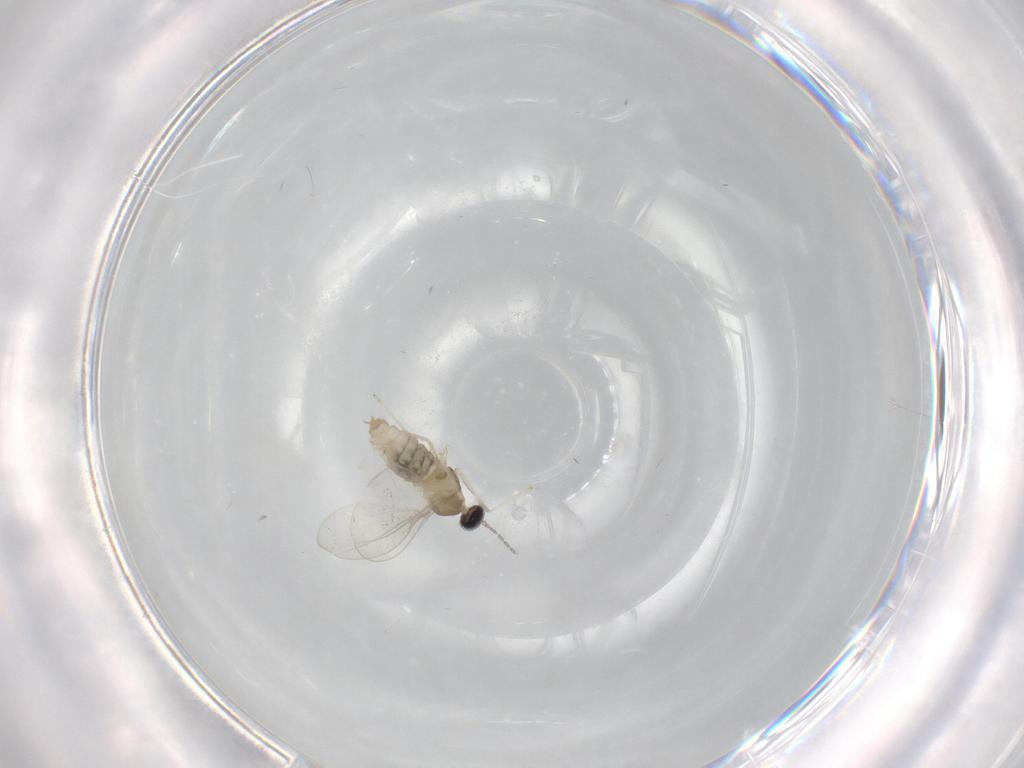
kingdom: Animalia
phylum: Arthropoda
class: Insecta
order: Diptera
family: Cecidomyiidae
